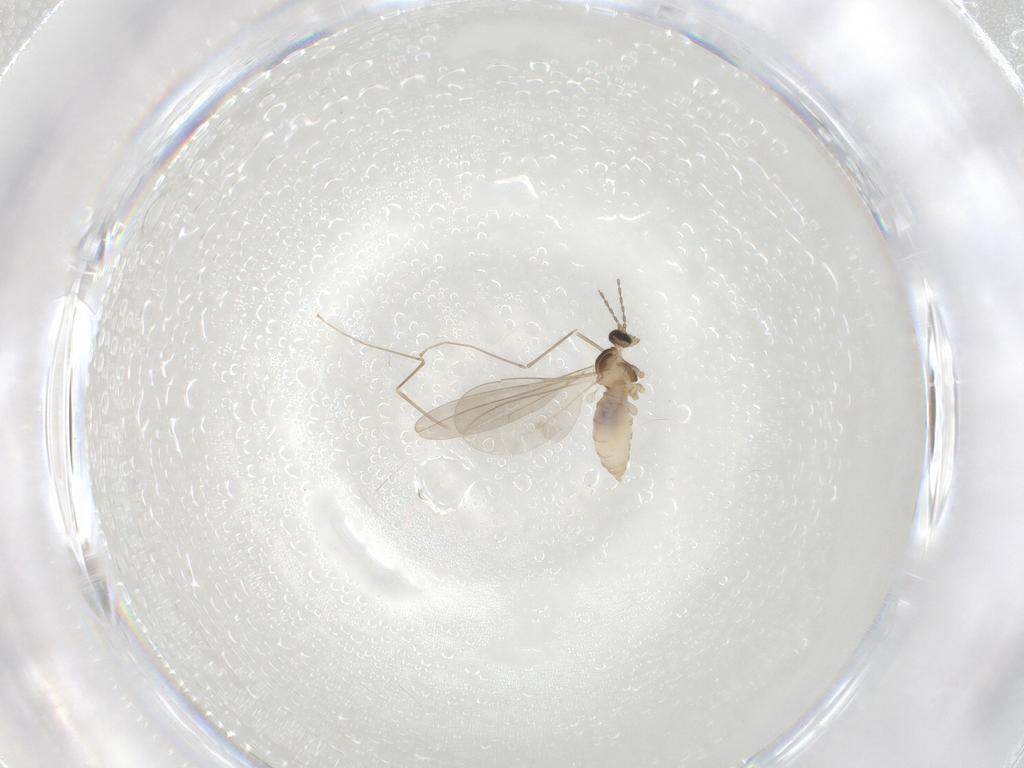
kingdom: Animalia
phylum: Arthropoda
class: Insecta
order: Diptera
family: Cecidomyiidae
